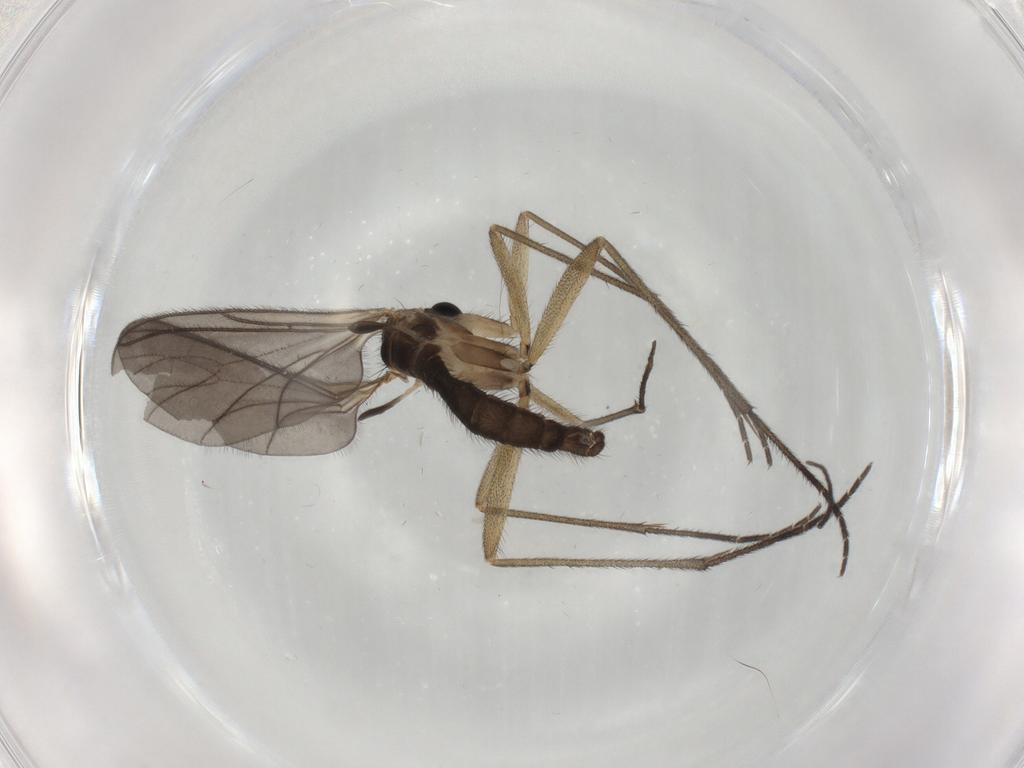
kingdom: Animalia
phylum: Arthropoda
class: Insecta
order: Diptera
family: Sciaridae
